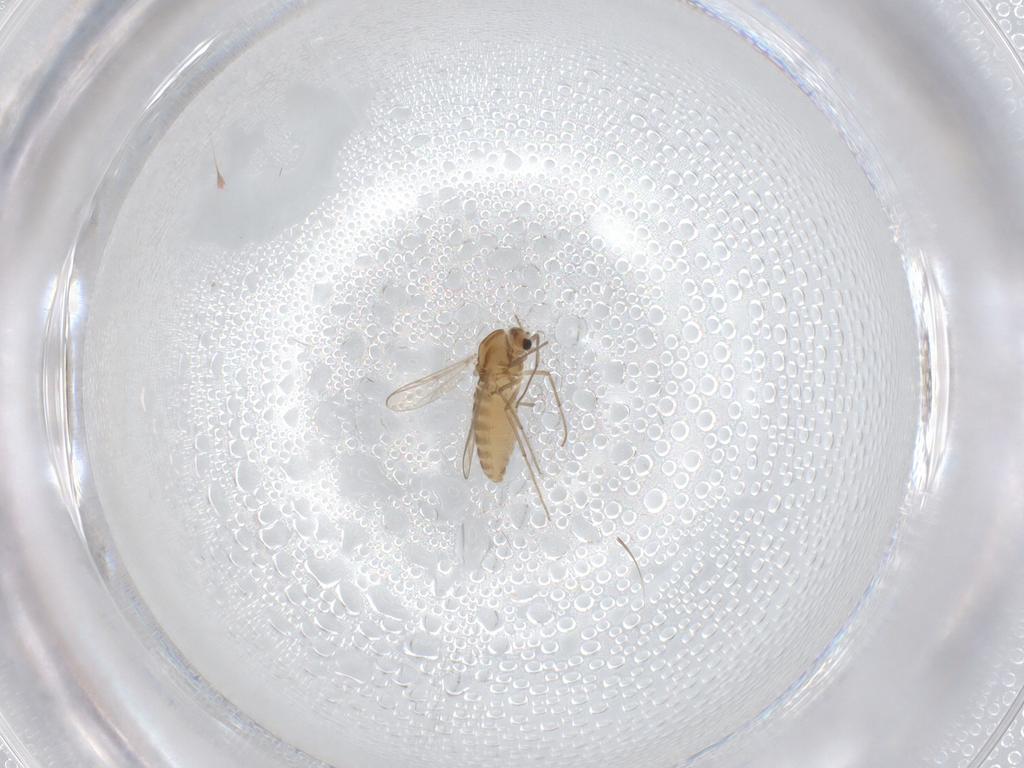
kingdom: Animalia
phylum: Arthropoda
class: Insecta
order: Diptera
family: Chironomidae
